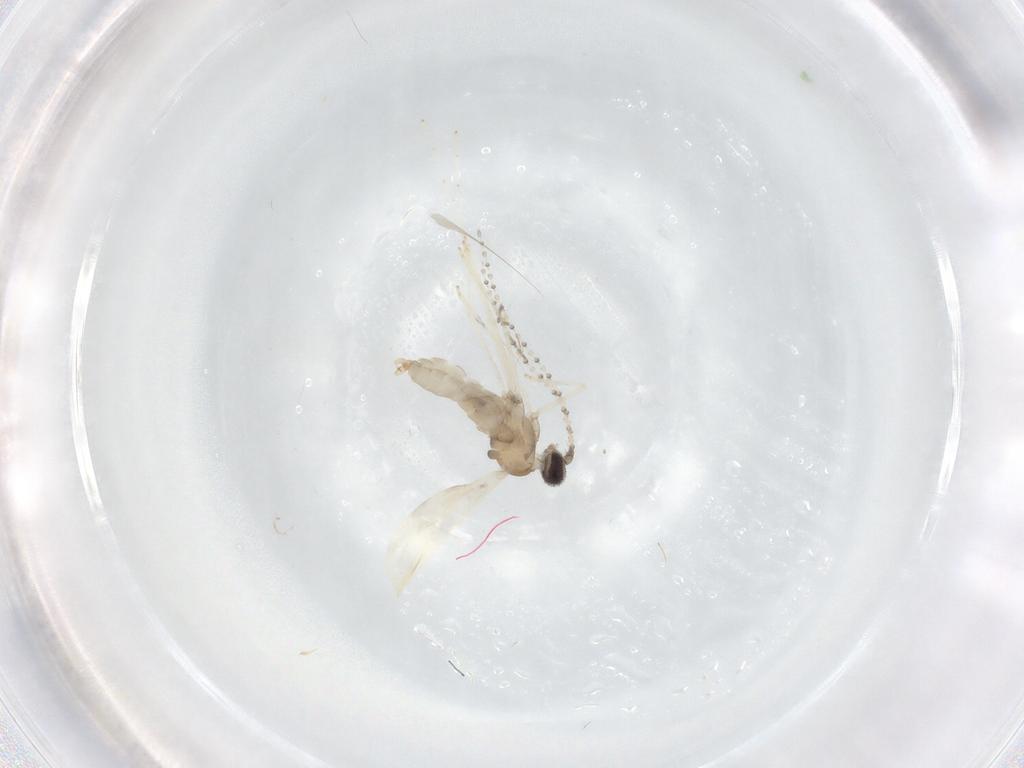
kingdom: Animalia
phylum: Arthropoda
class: Insecta
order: Diptera
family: Cecidomyiidae
